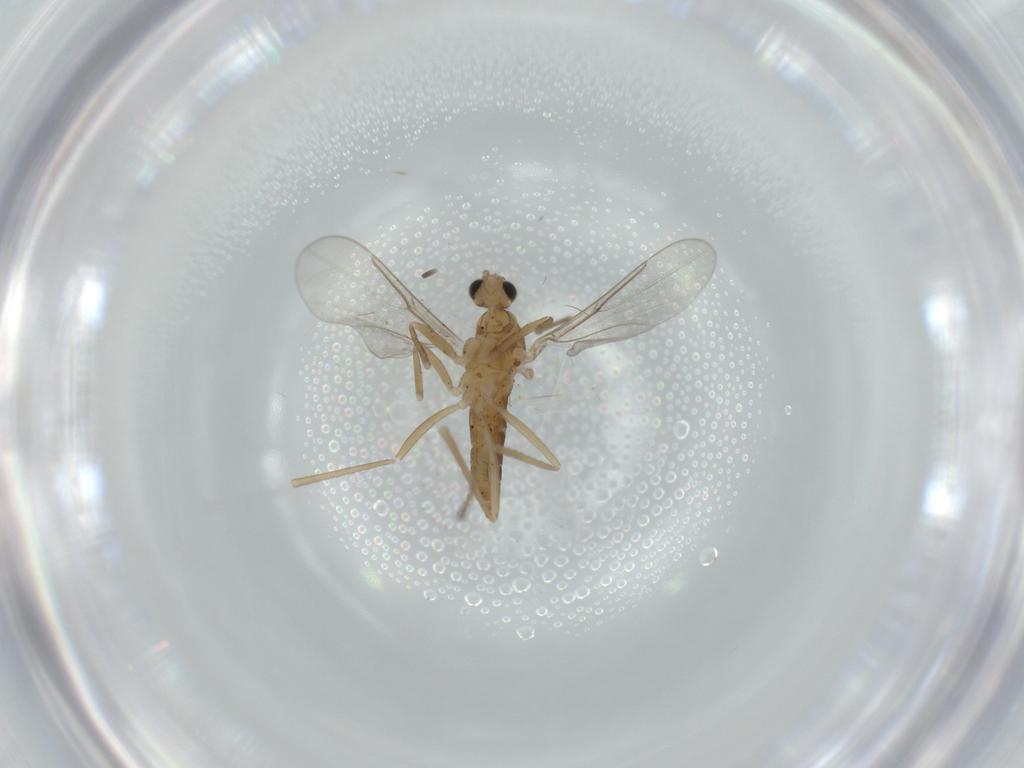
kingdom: Animalia
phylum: Arthropoda
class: Insecta
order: Diptera
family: Cecidomyiidae
